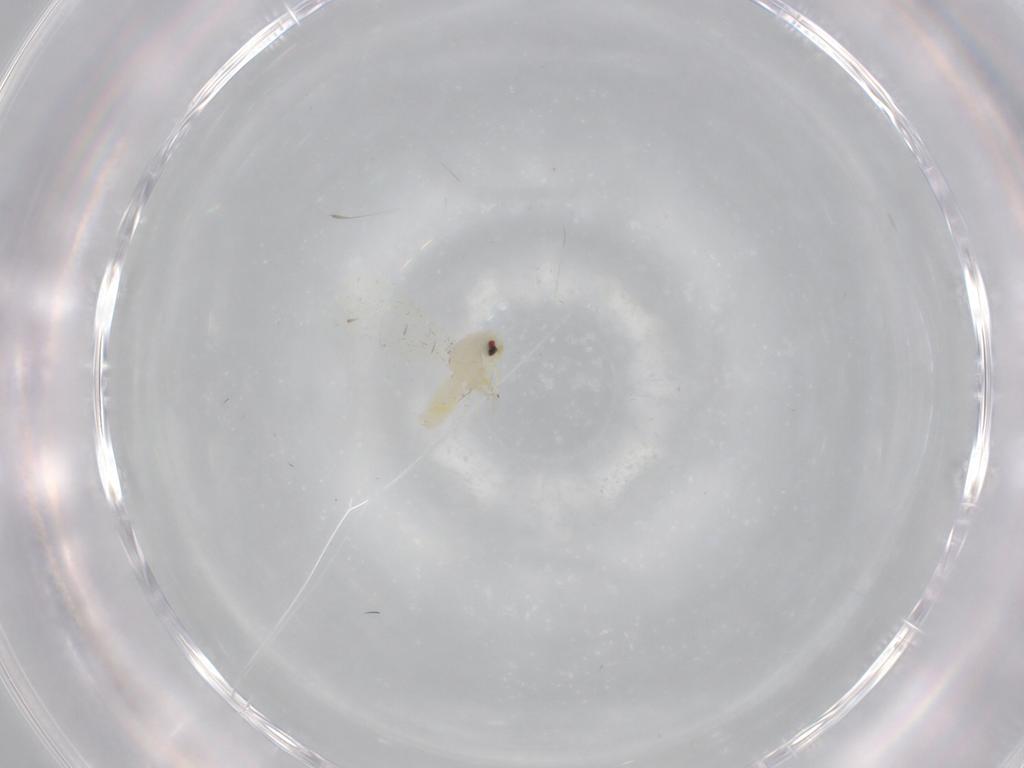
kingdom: Animalia
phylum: Arthropoda
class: Insecta
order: Hemiptera
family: Aleyrodidae
